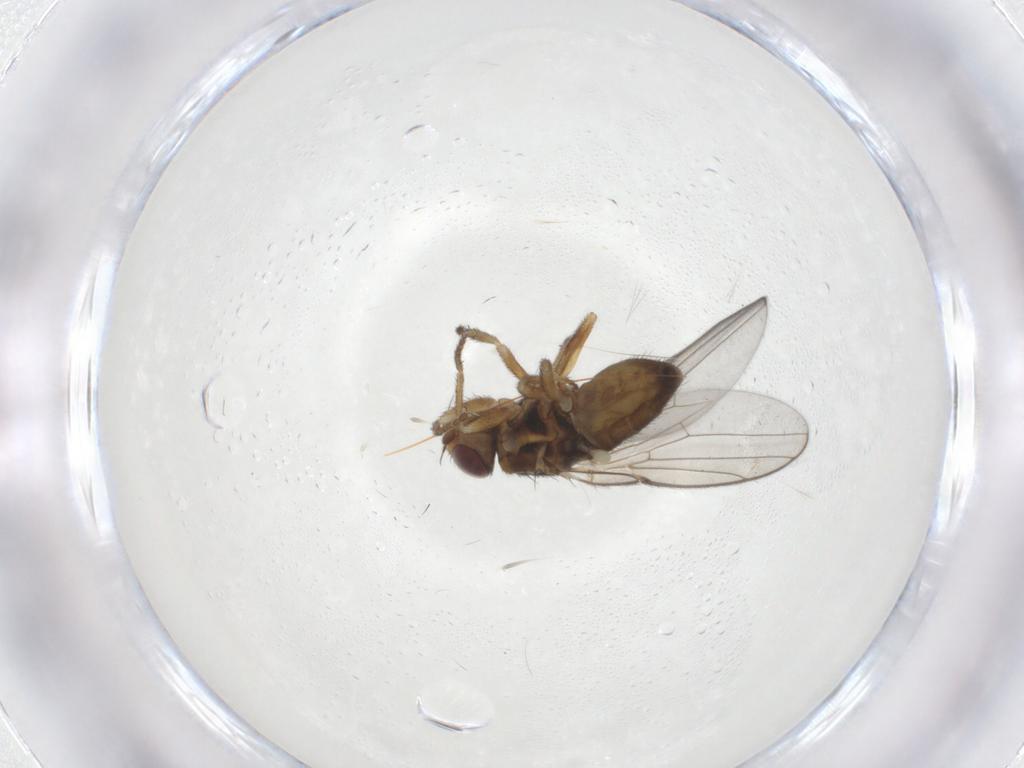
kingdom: Animalia
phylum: Arthropoda
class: Insecta
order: Diptera
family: Chloropidae
